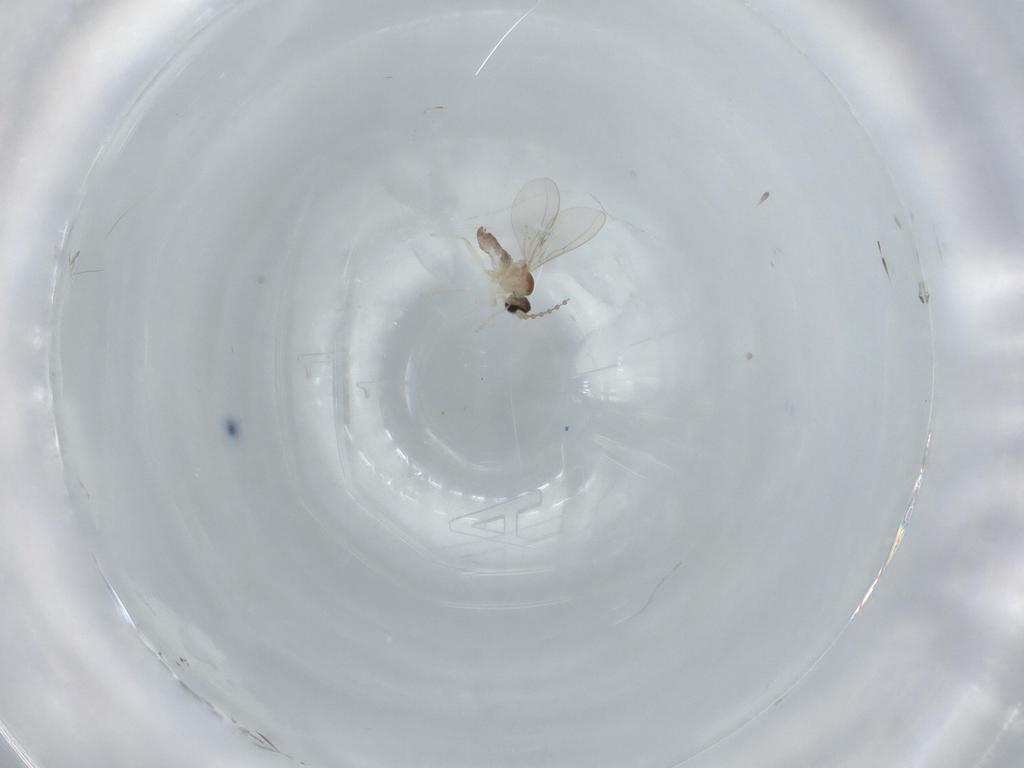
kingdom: Animalia
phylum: Arthropoda
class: Insecta
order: Diptera
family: Cecidomyiidae
